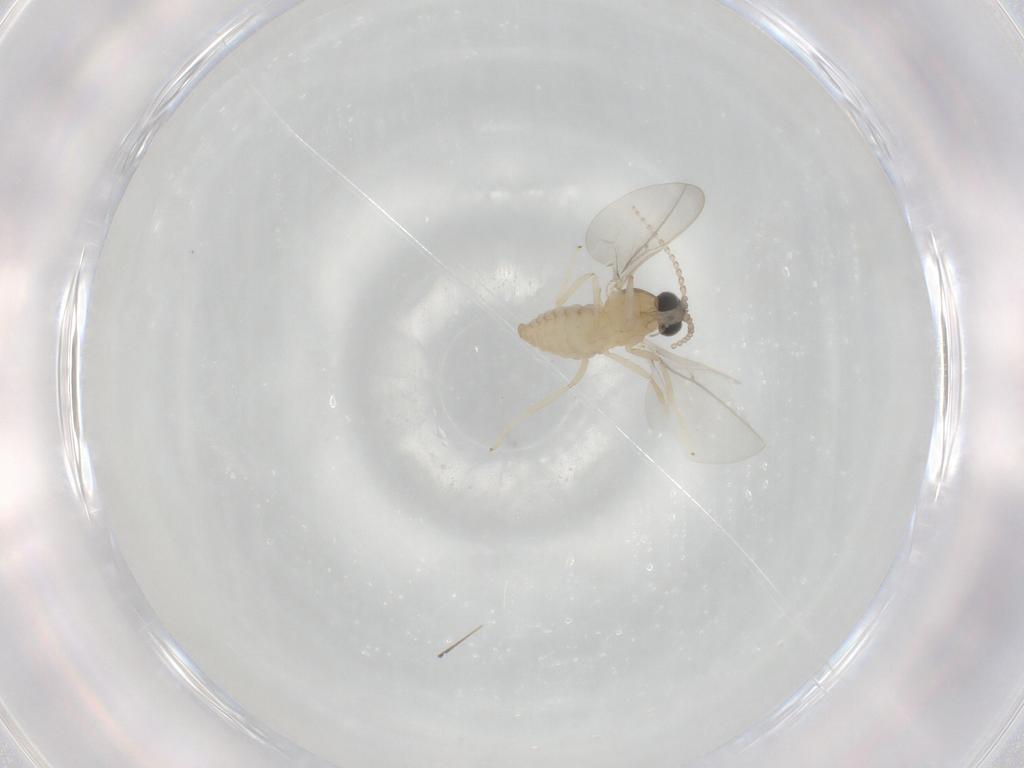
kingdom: Animalia
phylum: Arthropoda
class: Insecta
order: Diptera
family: Cecidomyiidae
